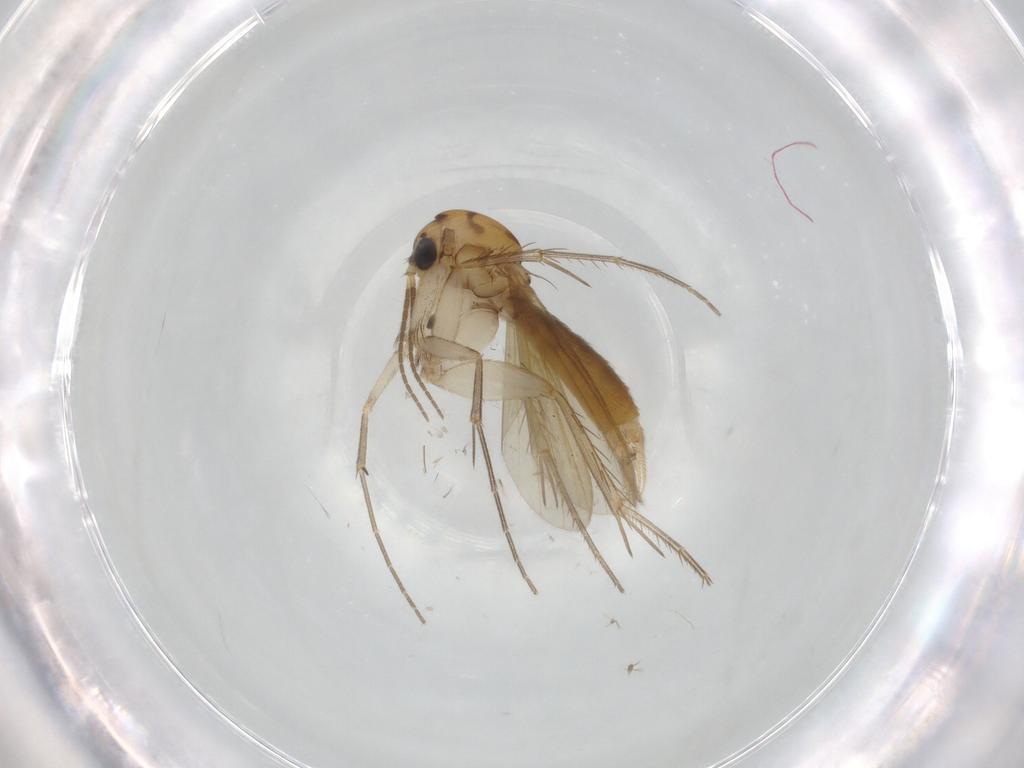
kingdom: Animalia
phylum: Arthropoda
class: Insecta
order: Diptera
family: Sciaridae
